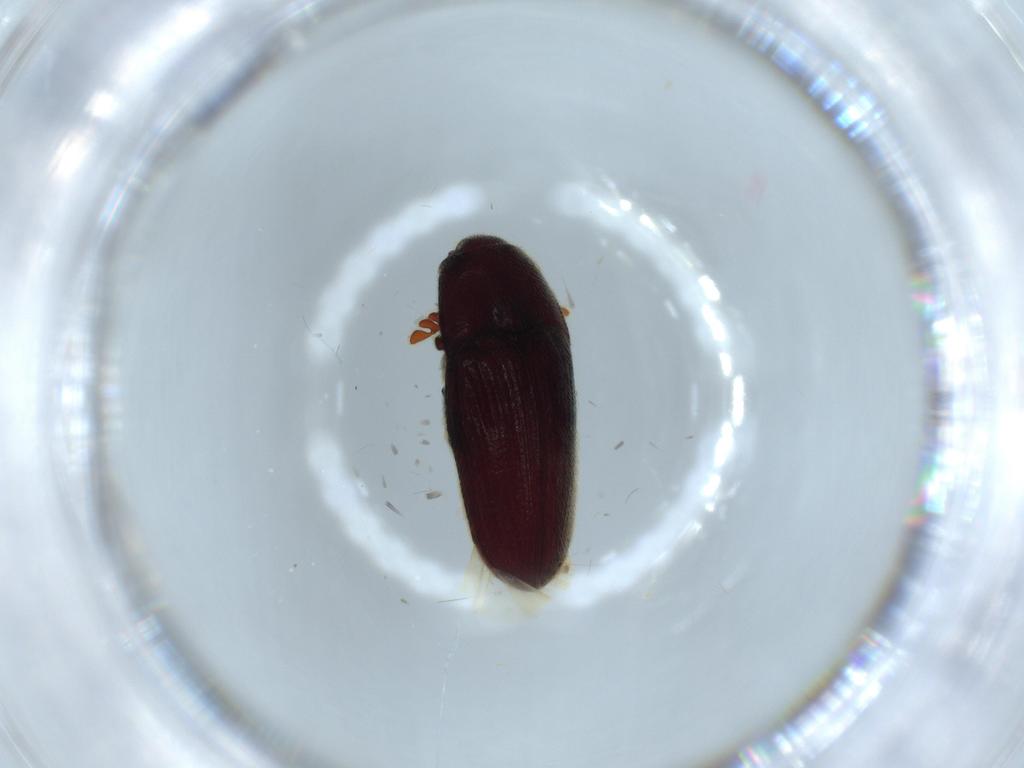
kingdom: Animalia
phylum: Arthropoda
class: Insecta
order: Coleoptera
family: Throscidae
